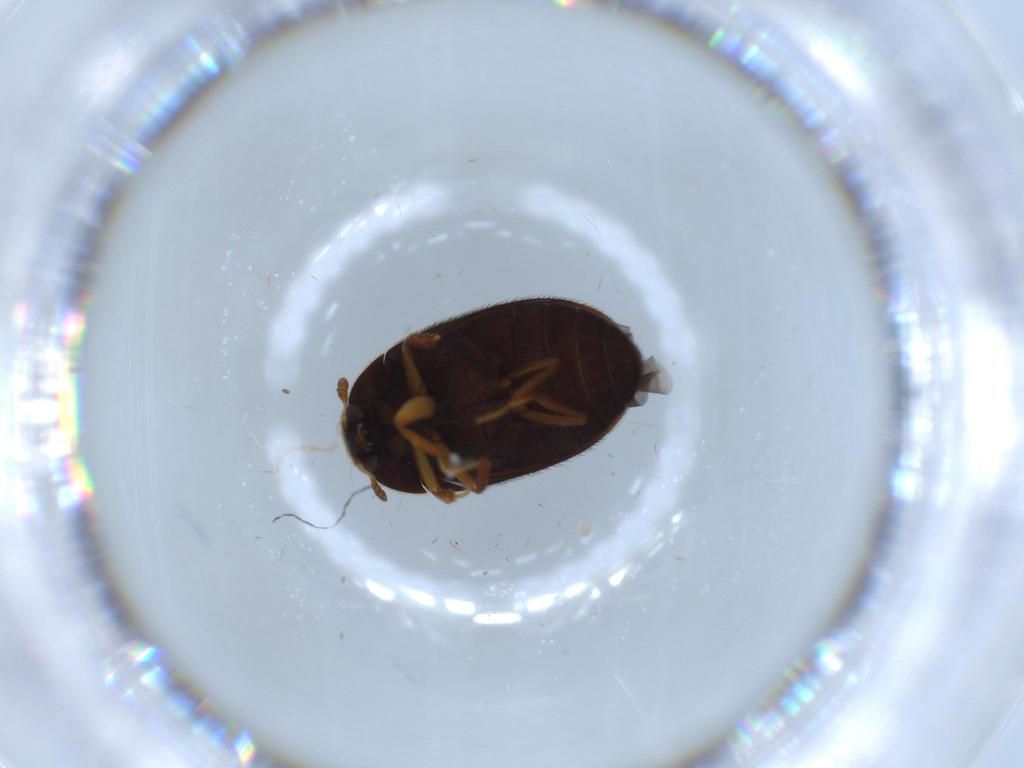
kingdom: Animalia
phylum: Arthropoda
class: Insecta
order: Coleoptera
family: Dermestidae
